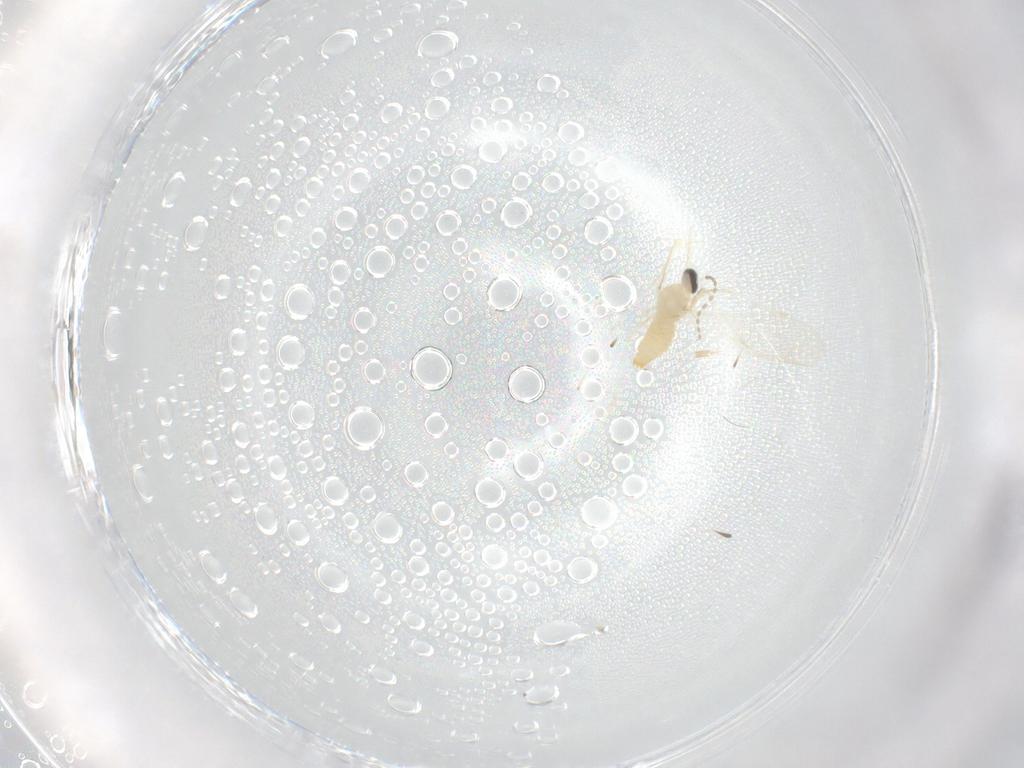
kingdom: Animalia
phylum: Arthropoda
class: Insecta
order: Diptera
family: Cecidomyiidae
